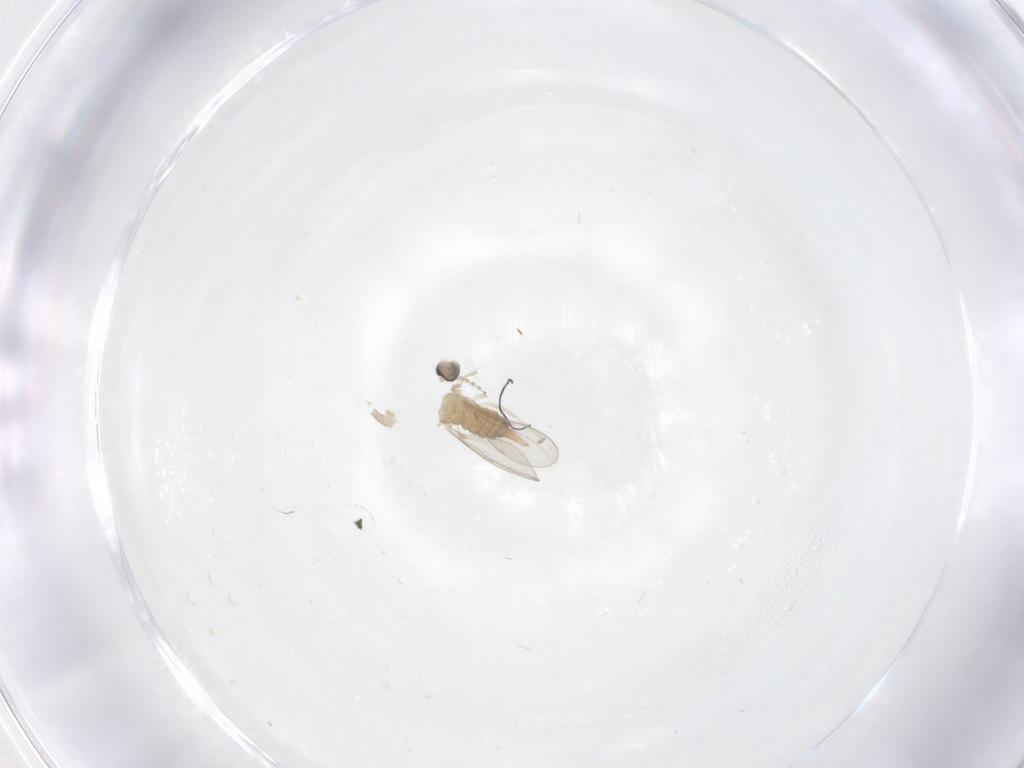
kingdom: Animalia
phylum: Arthropoda
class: Insecta
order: Diptera
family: Cecidomyiidae
